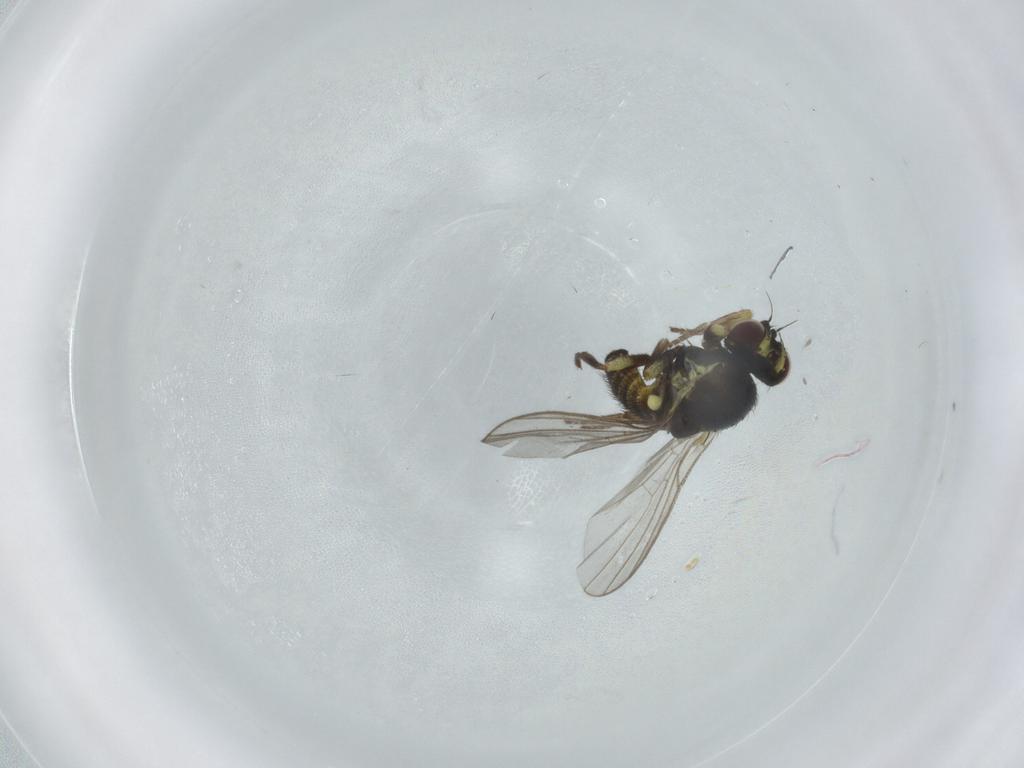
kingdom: Animalia
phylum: Arthropoda
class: Insecta
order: Diptera
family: Agromyzidae
